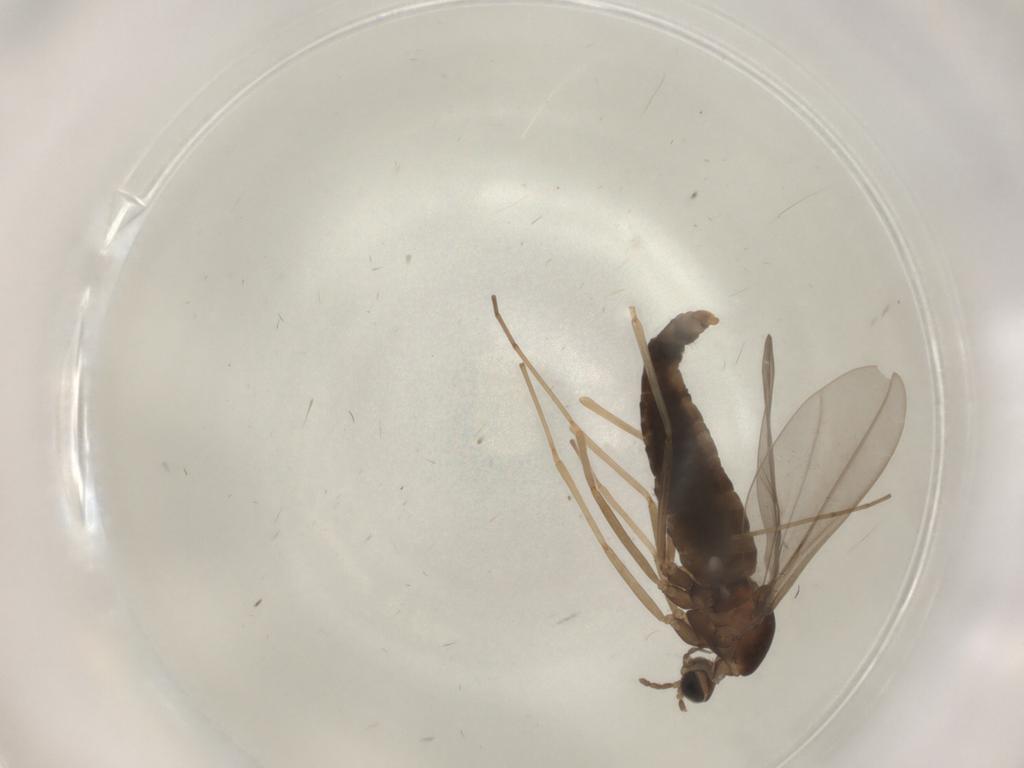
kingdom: Animalia
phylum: Arthropoda
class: Insecta
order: Diptera
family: Cecidomyiidae
